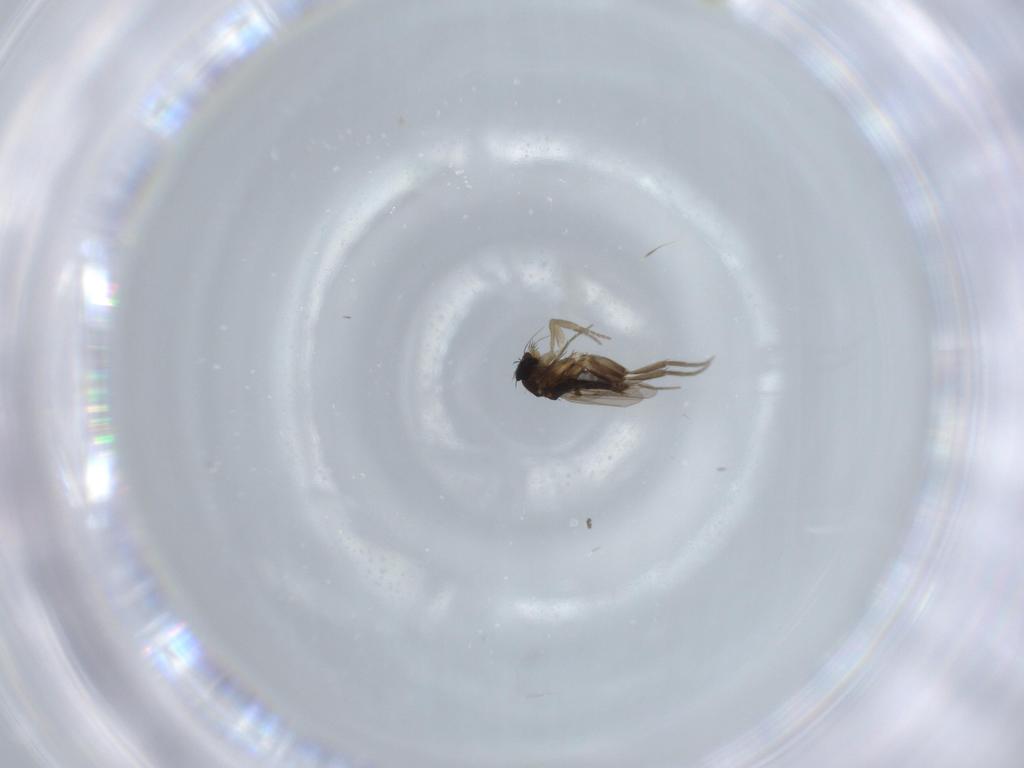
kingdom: Animalia
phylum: Arthropoda
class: Insecta
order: Diptera
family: Phoridae
